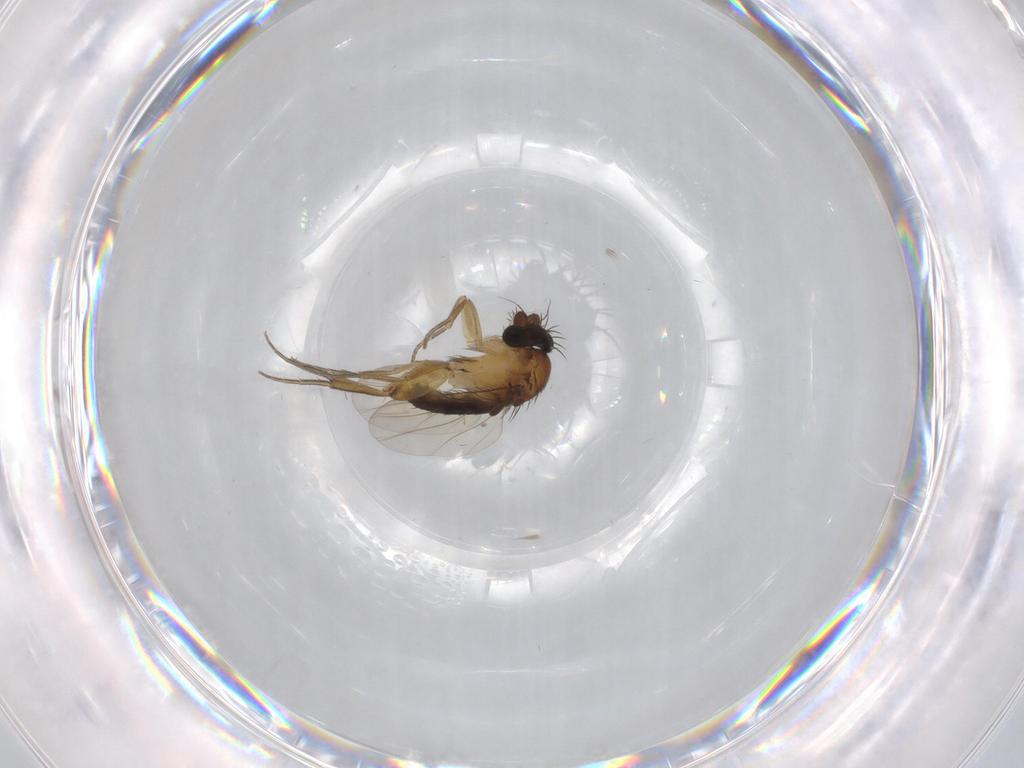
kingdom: Animalia
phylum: Arthropoda
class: Insecta
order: Diptera
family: Phoridae
